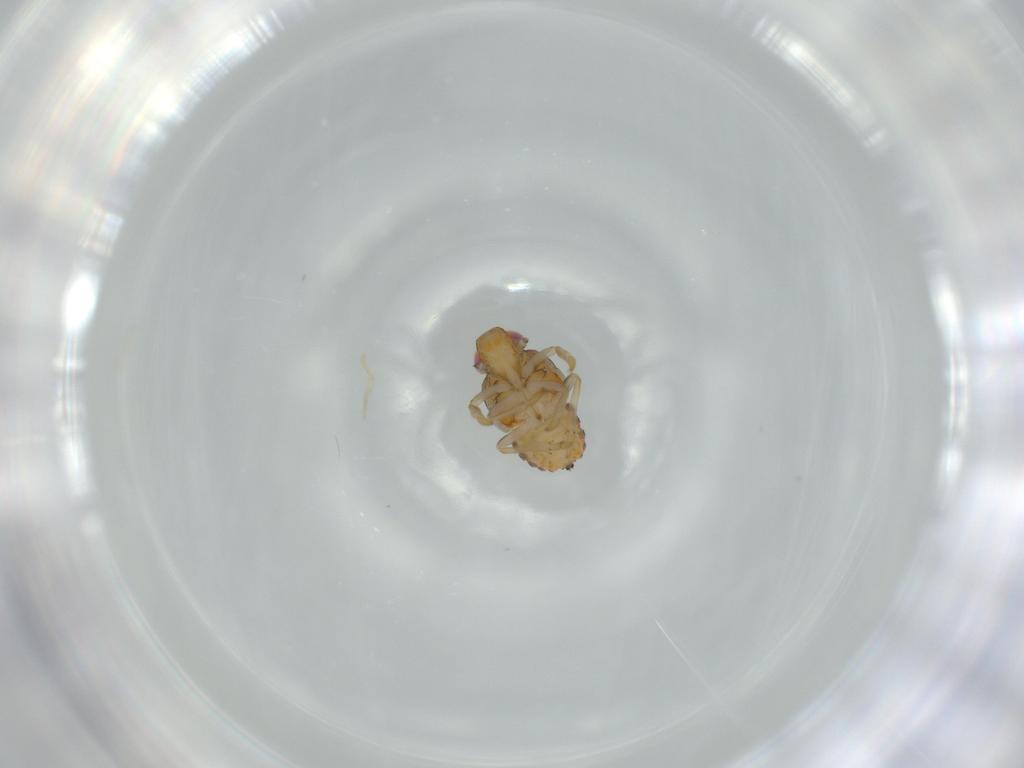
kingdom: Animalia
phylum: Arthropoda
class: Insecta
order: Hemiptera
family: Issidae
